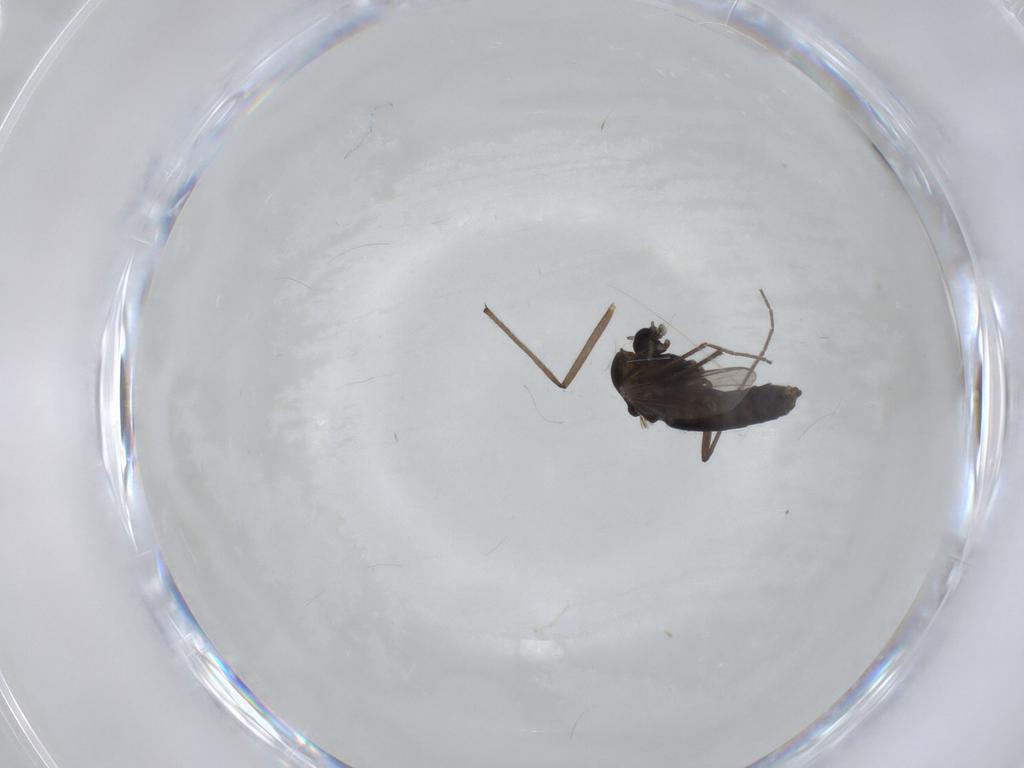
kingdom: Animalia
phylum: Arthropoda
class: Insecta
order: Diptera
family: Chironomidae
